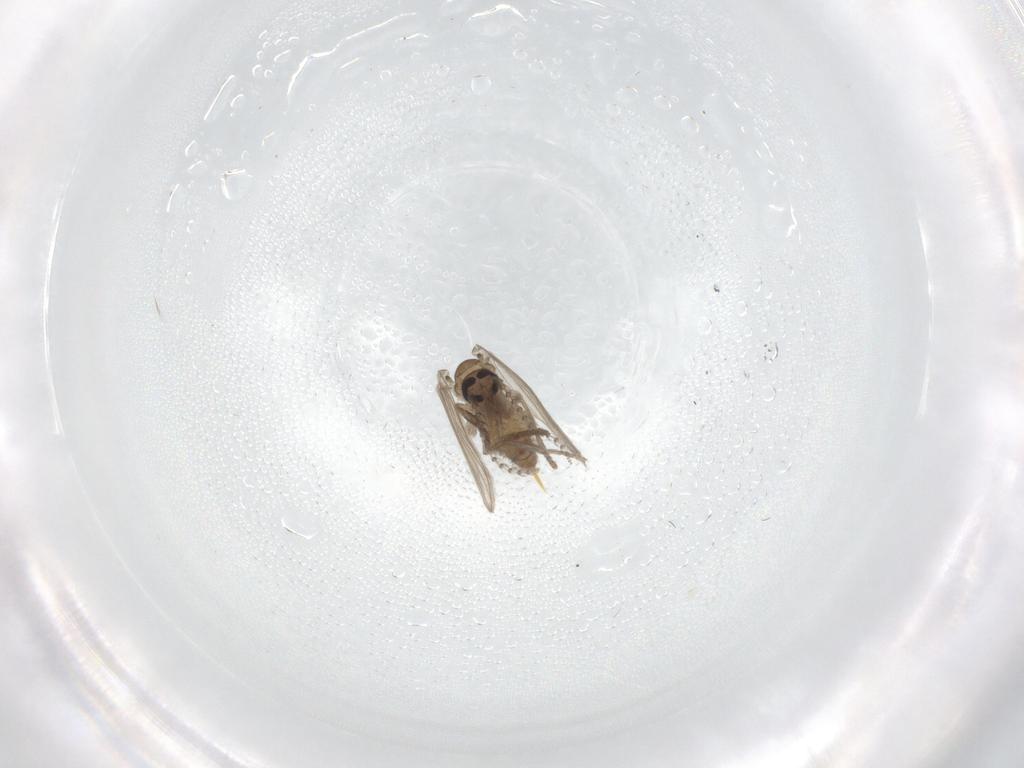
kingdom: Animalia
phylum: Arthropoda
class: Insecta
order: Diptera
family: Psychodidae
